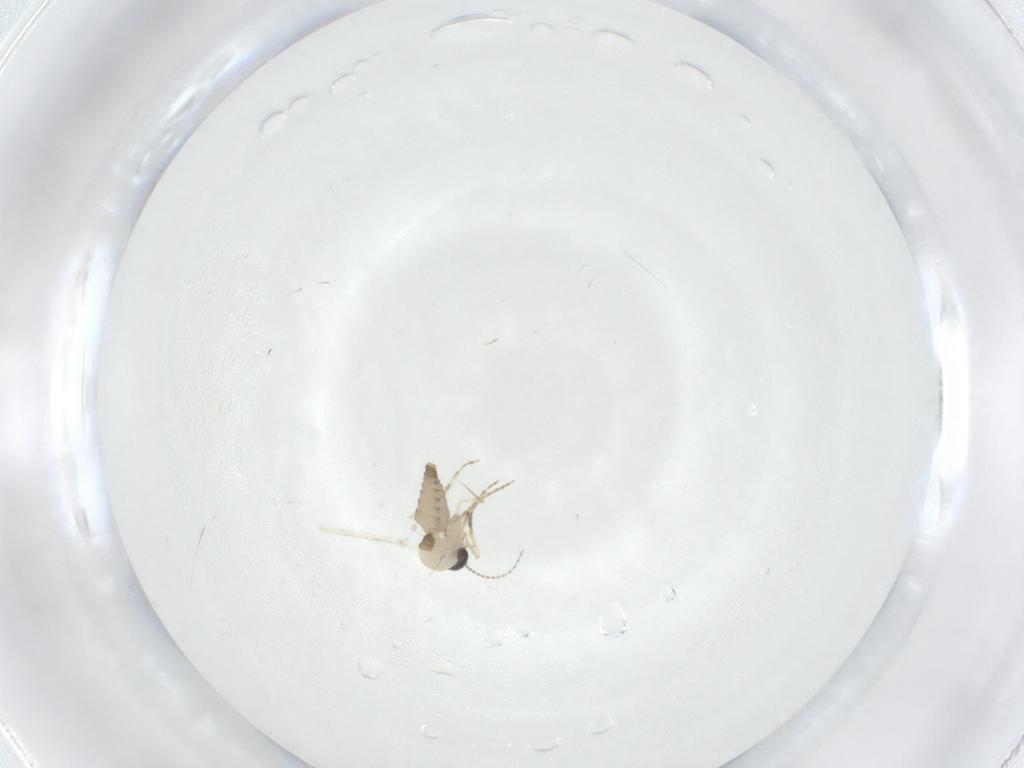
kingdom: Animalia
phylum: Arthropoda
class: Insecta
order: Diptera
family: Ceratopogonidae
